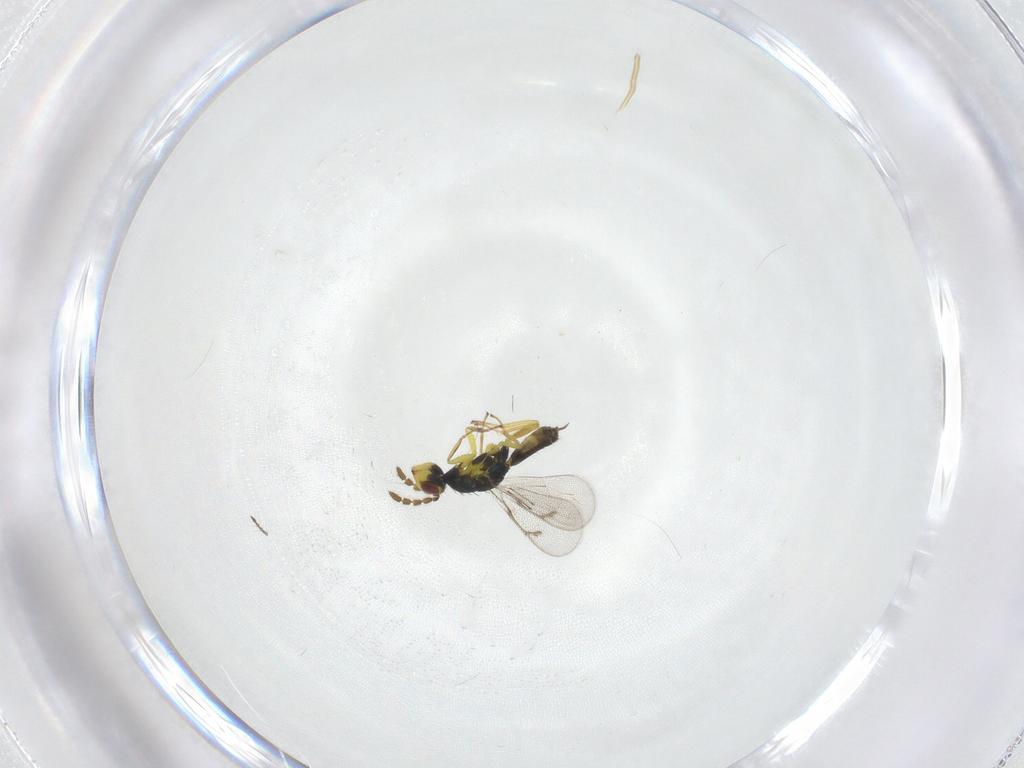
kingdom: Animalia
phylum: Arthropoda
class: Insecta
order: Hymenoptera
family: Eulophidae
